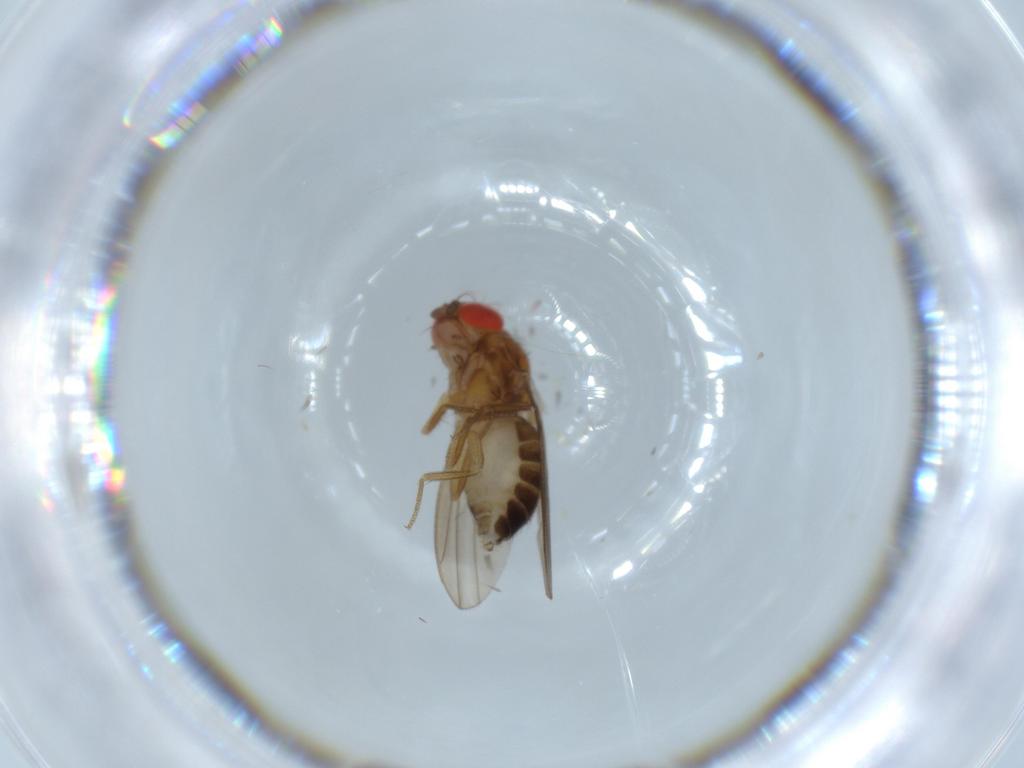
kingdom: Animalia
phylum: Arthropoda
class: Insecta
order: Diptera
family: Drosophilidae
